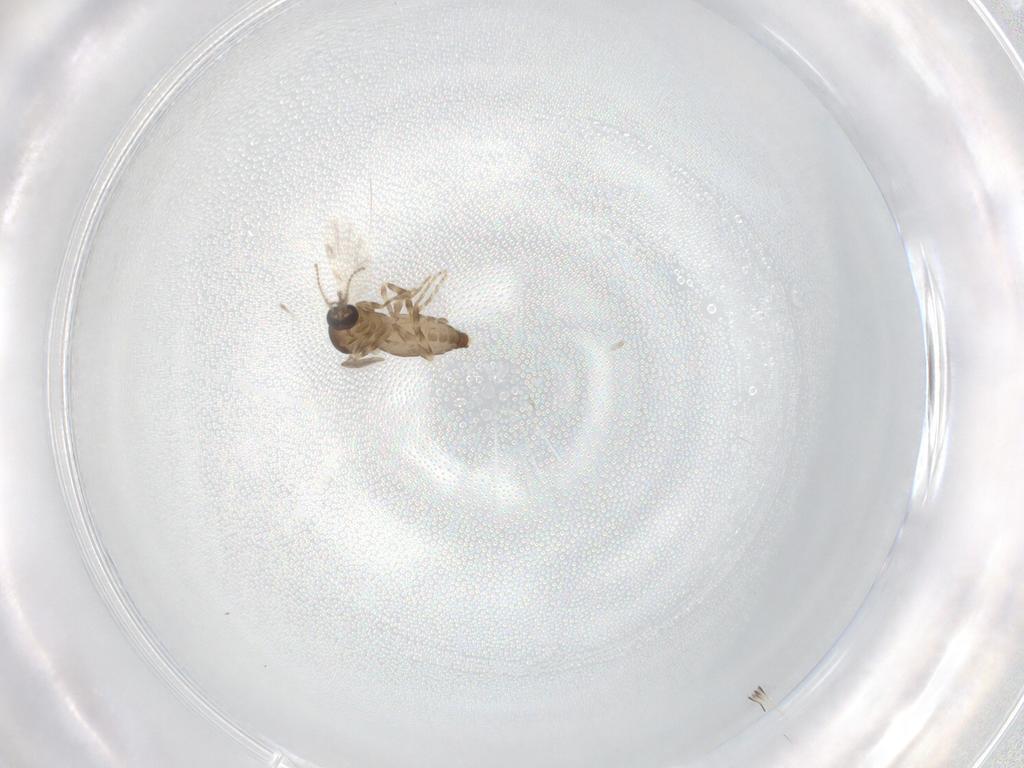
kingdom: Animalia
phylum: Arthropoda
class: Insecta
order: Diptera
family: Ceratopogonidae
